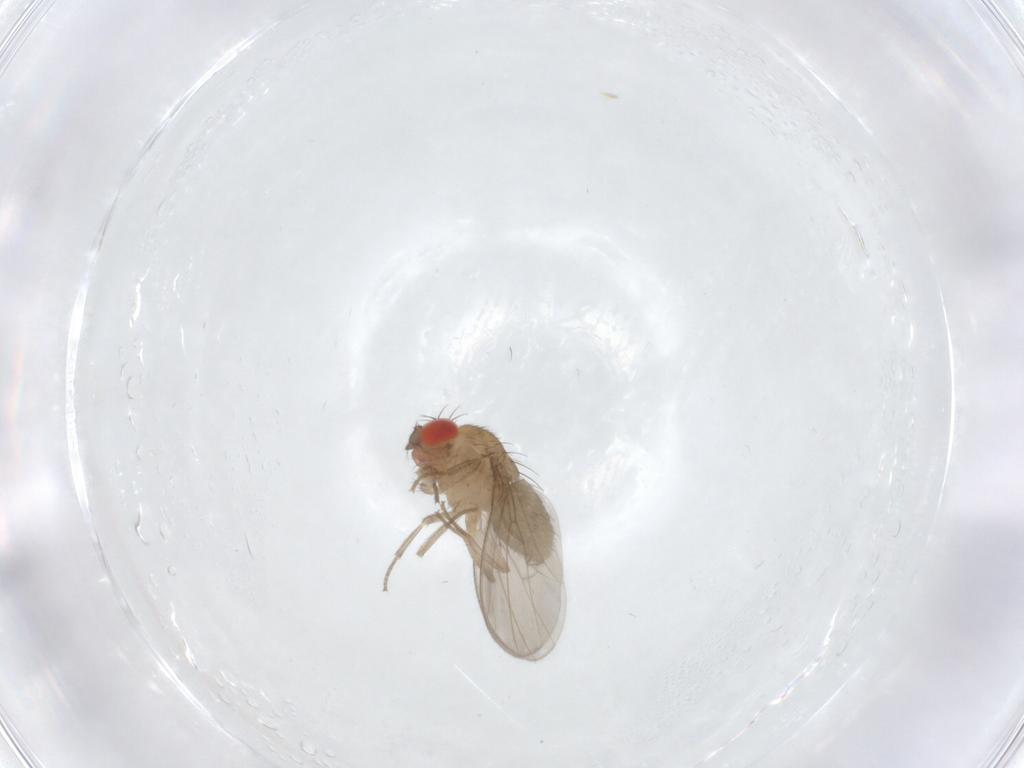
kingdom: Animalia
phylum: Arthropoda
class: Insecta
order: Diptera
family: Drosophilidae
